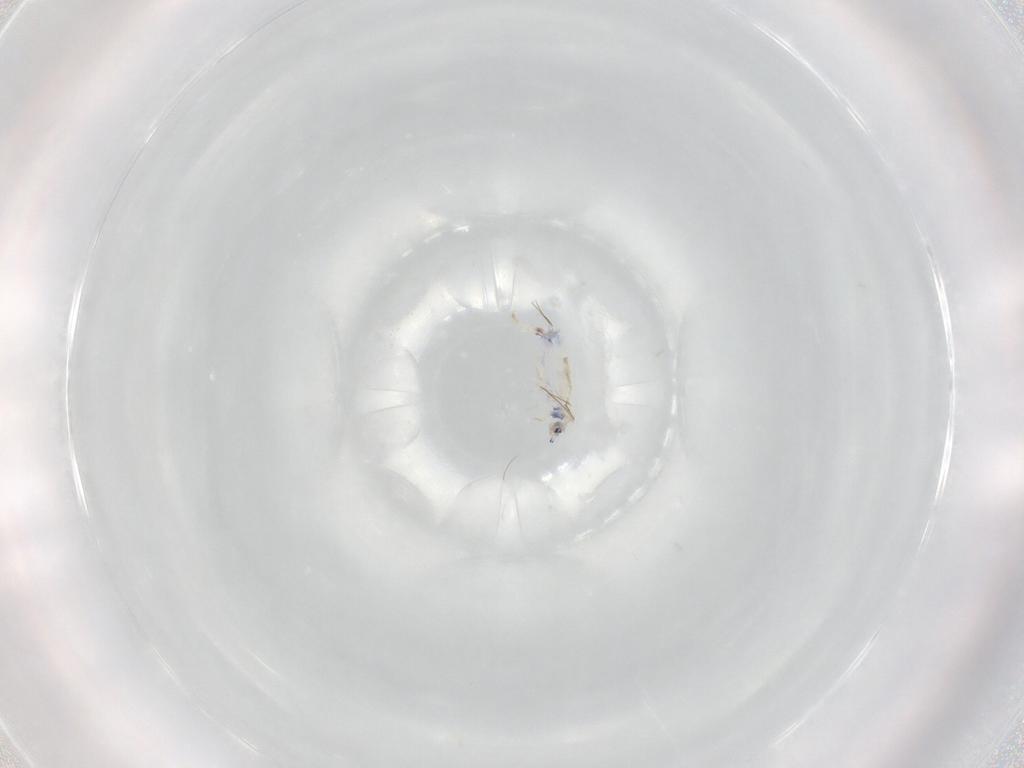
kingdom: Animalia
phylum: Arthropoda
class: Collembola
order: Entomobryomorpha
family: Entomobryidae
